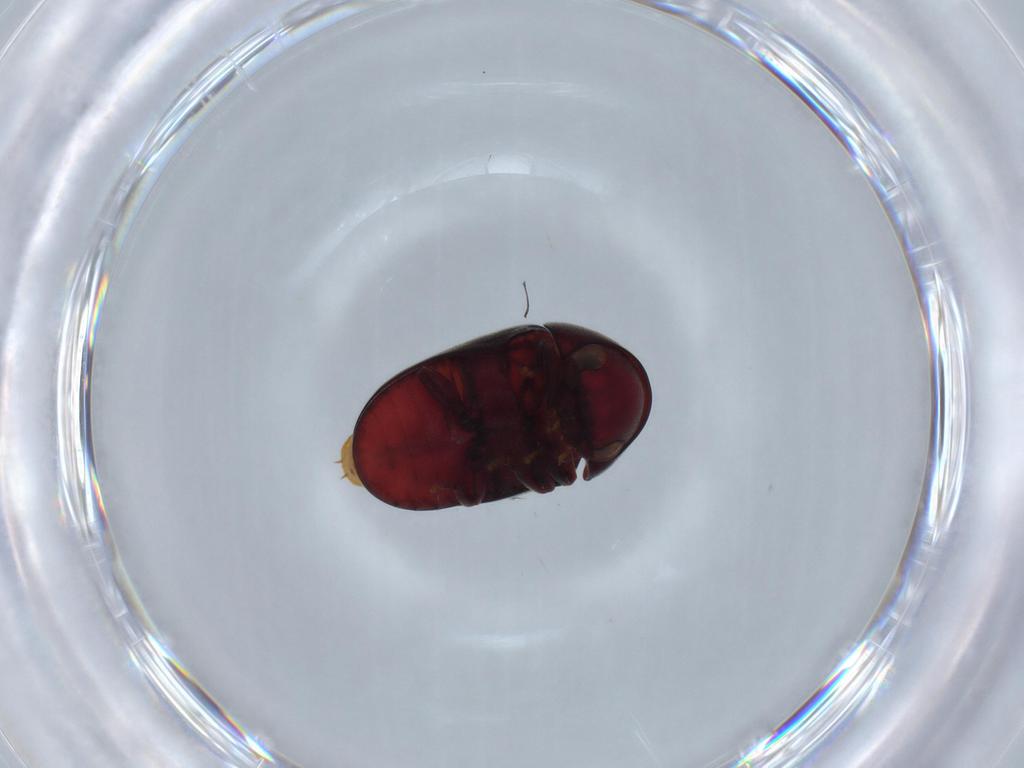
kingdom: Animalia
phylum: Arthropoda
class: Insecta
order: Coleoptera
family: Ptinidae
